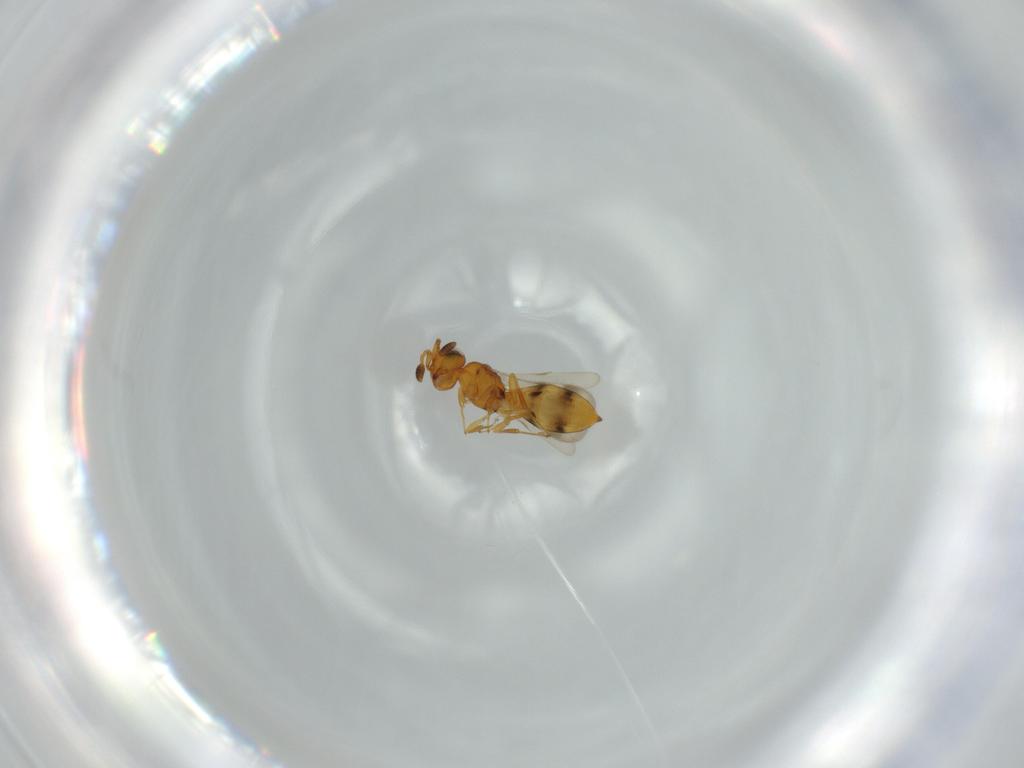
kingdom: Animalia
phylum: Arthropoda
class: Insecta
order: Hymenoptera
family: Scelionidae
